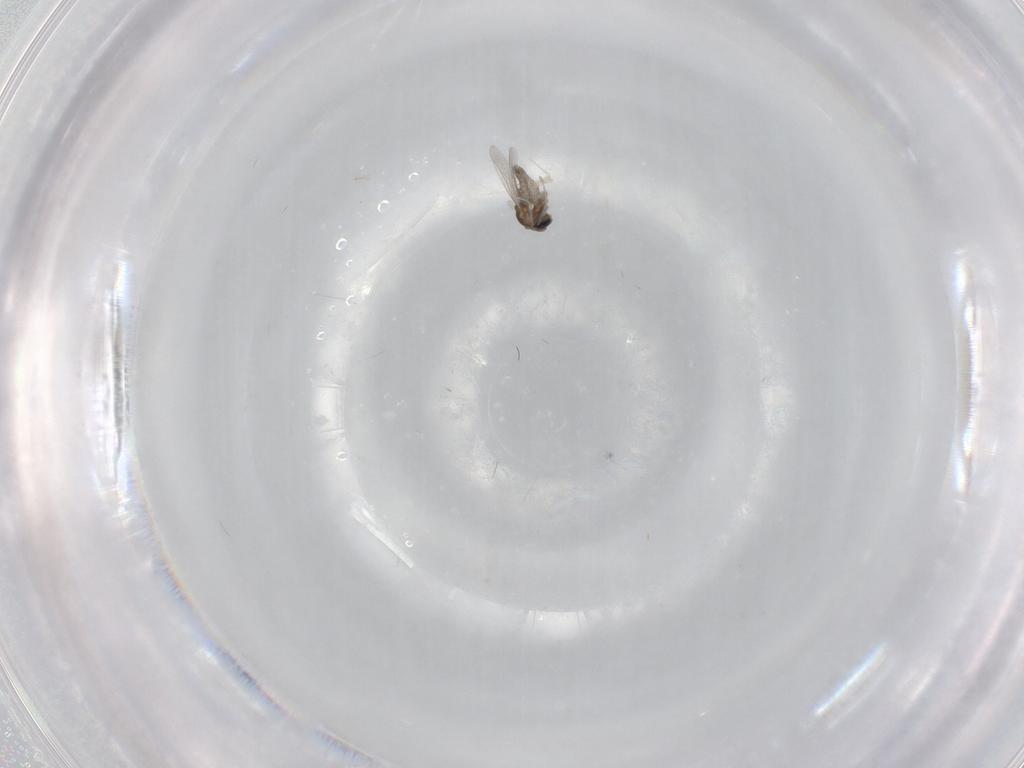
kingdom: Animalia
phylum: Arthropoda
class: Insecta
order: Diptera
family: Cecidomyiidae
